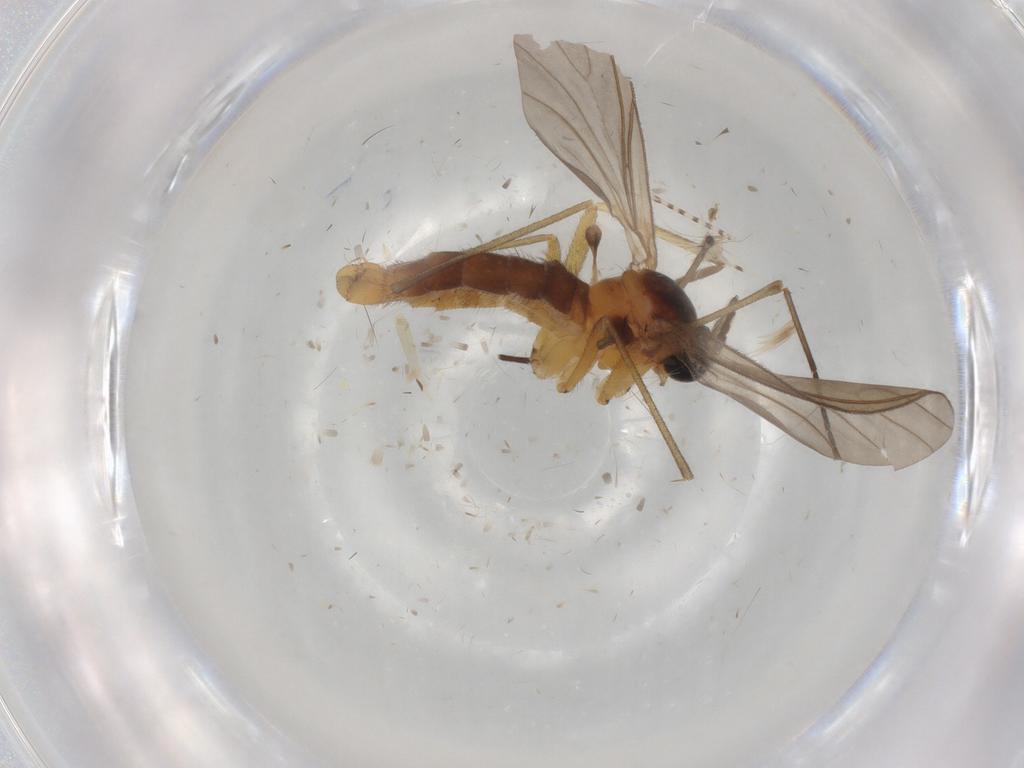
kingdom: Animalia
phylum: Arthropoda
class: Insecta
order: Diptera
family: Sciaridae
